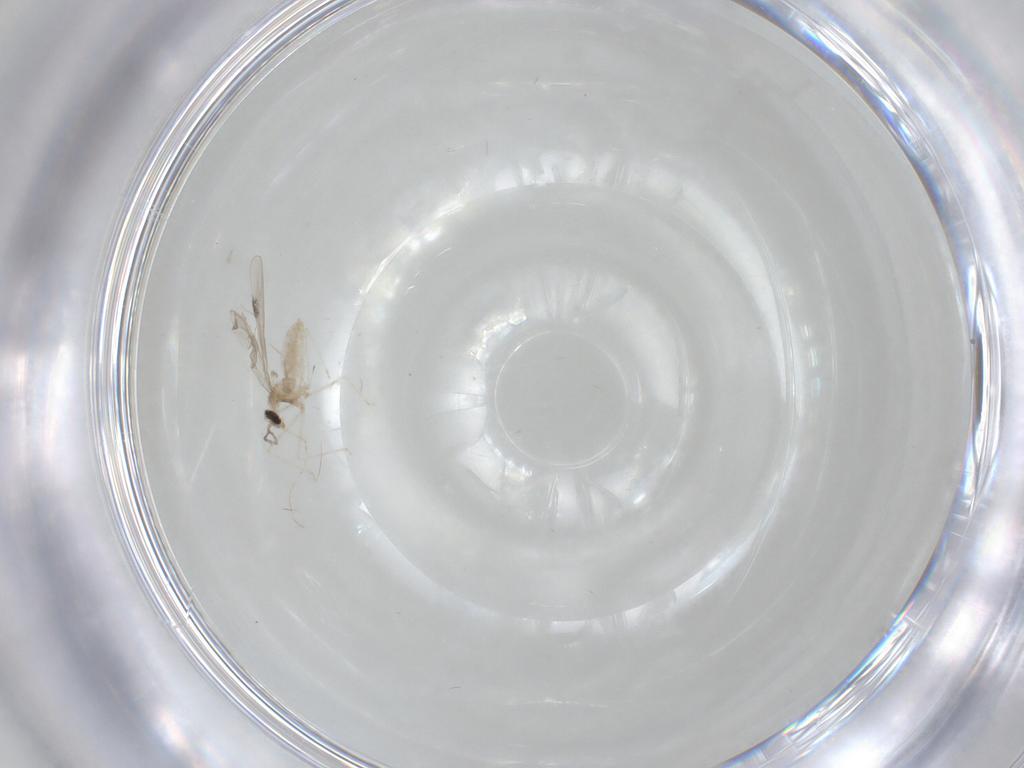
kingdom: Animalia
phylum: Arthropoda
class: Insecta
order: Diptera
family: Cecidomyiidae
